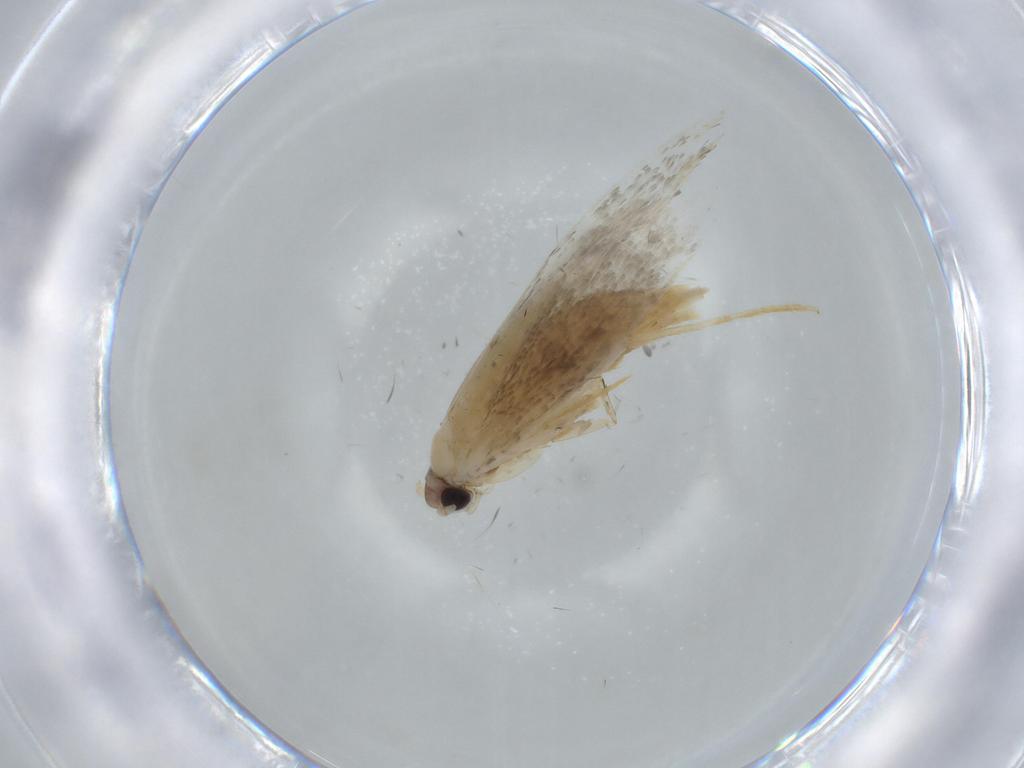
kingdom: Animalia
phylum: Arthropoda
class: Insecta
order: Lepidoptera
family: Tineidae
